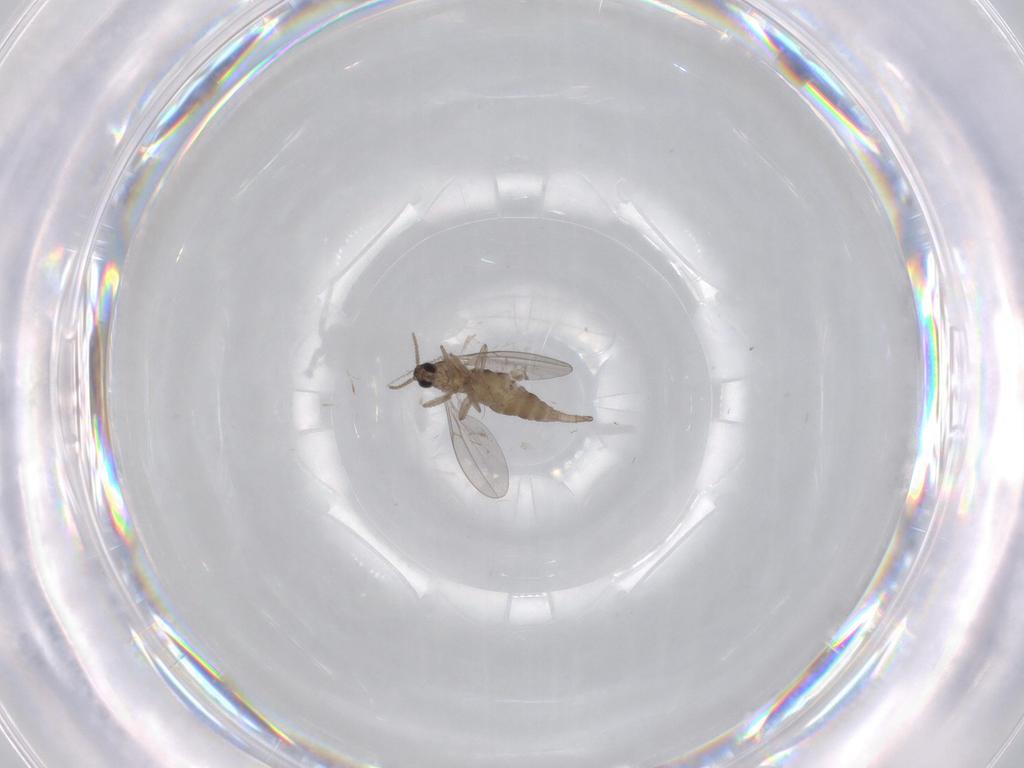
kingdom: Animalia
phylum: Arthropoda
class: Insecta
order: Diptera
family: Cecidomyiidae
